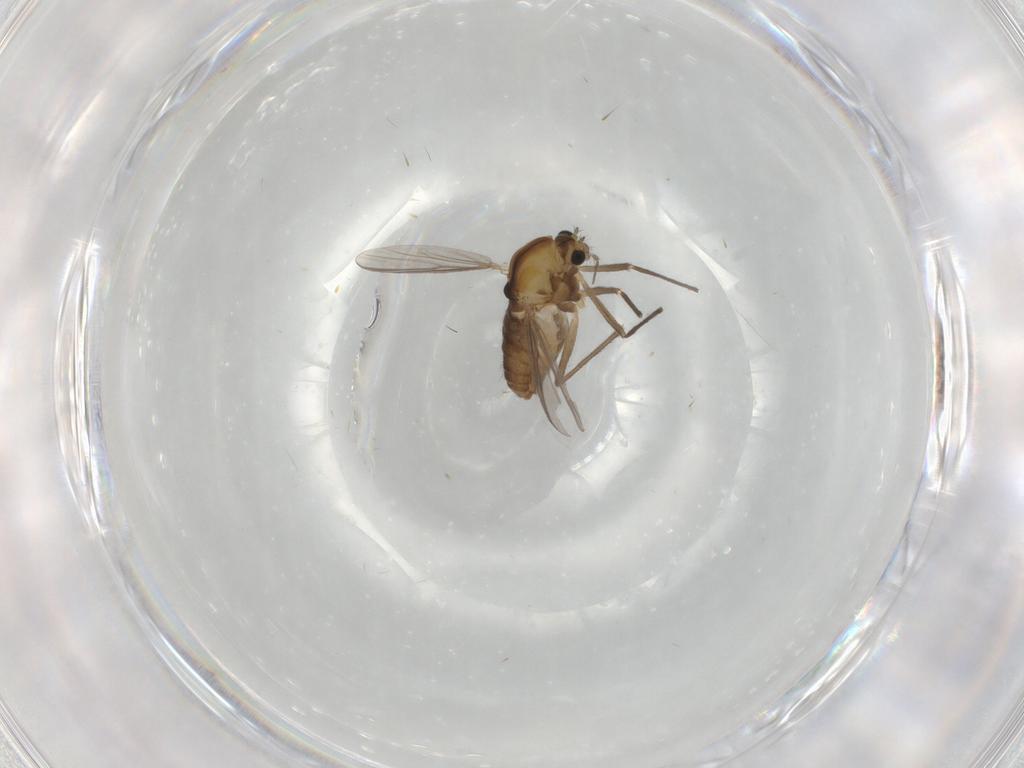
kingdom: Animalia
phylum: Arthropoda
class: Insecta
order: Diptera
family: Chironomidae
